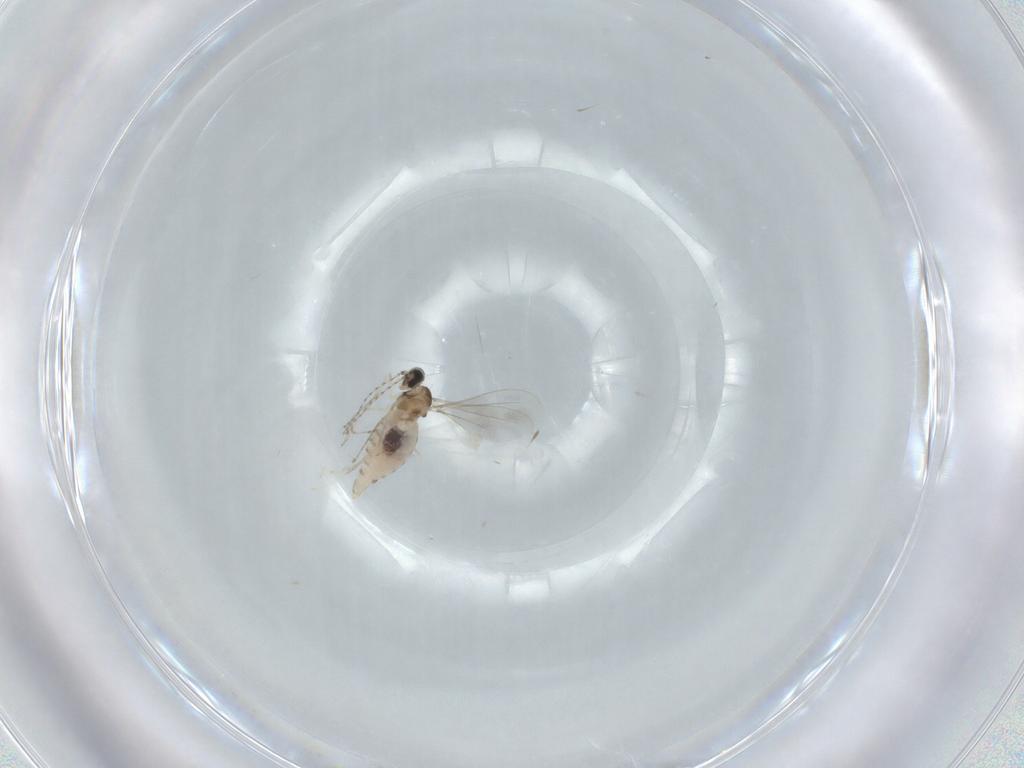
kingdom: Animalia
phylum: Arthropoda
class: Insecta
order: Diptera
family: Cecidomyiidae
